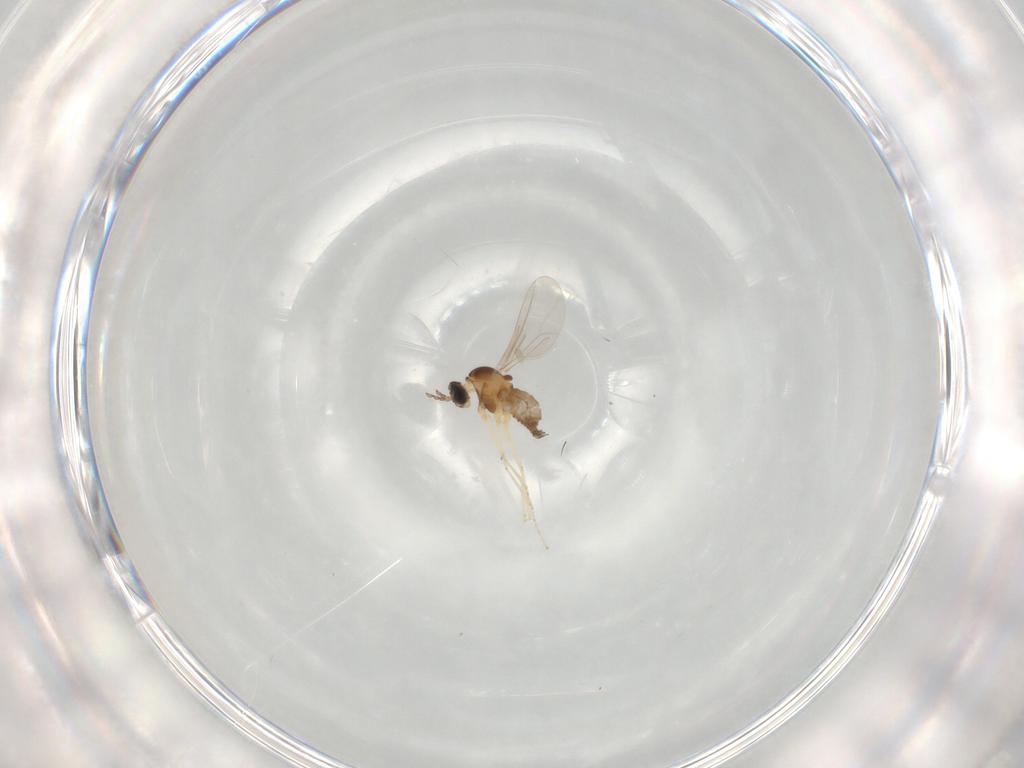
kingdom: Animalia
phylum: Arthropoda
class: Insecta
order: Diptera
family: Cecidomyiidae
